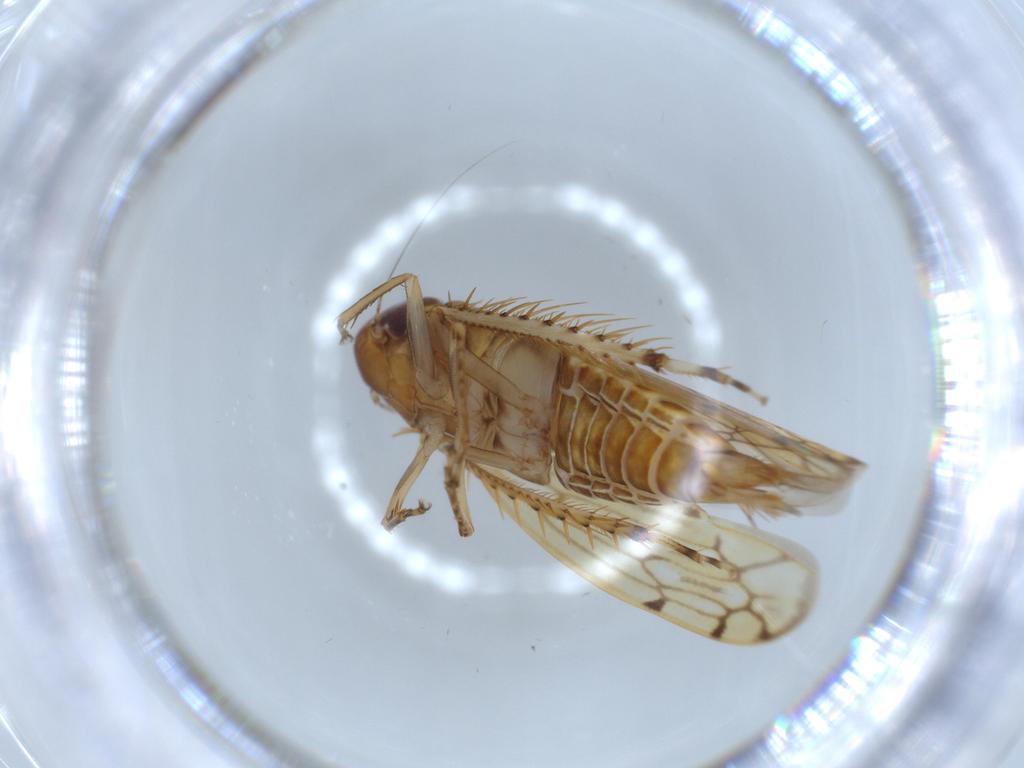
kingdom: Animalia
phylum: Arthropoda
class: Insecta
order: Hemiptera
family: Cicadellidae
